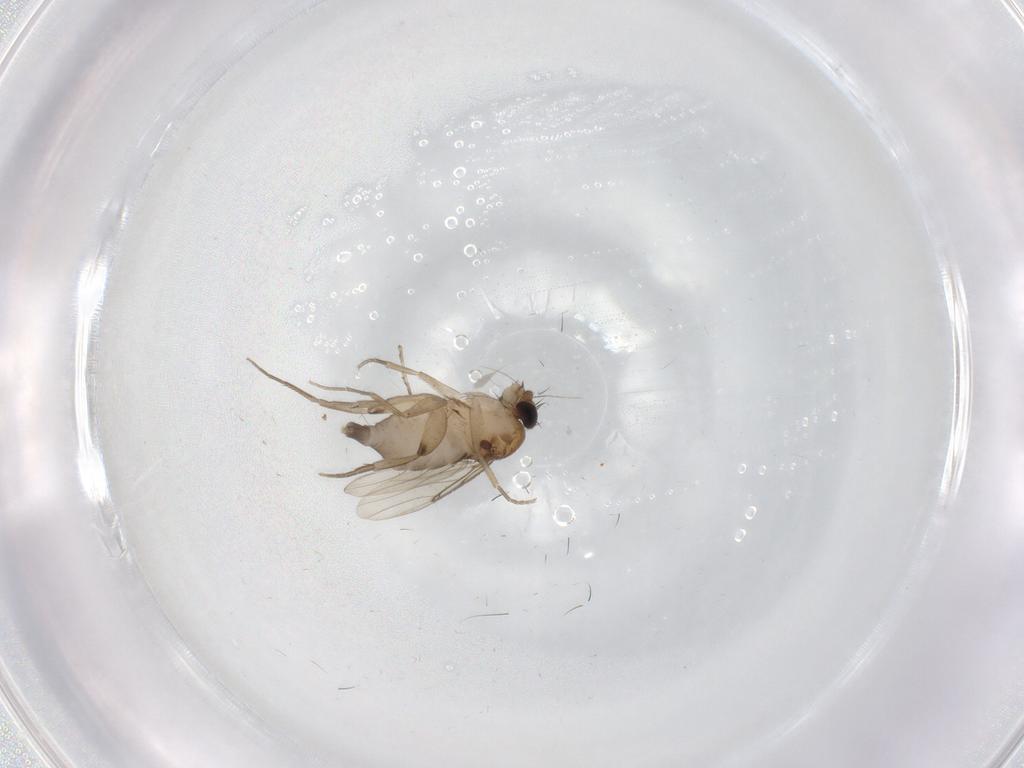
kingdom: Animalia
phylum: Arthropoda
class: Insecta
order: Diptera
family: Phoridae
